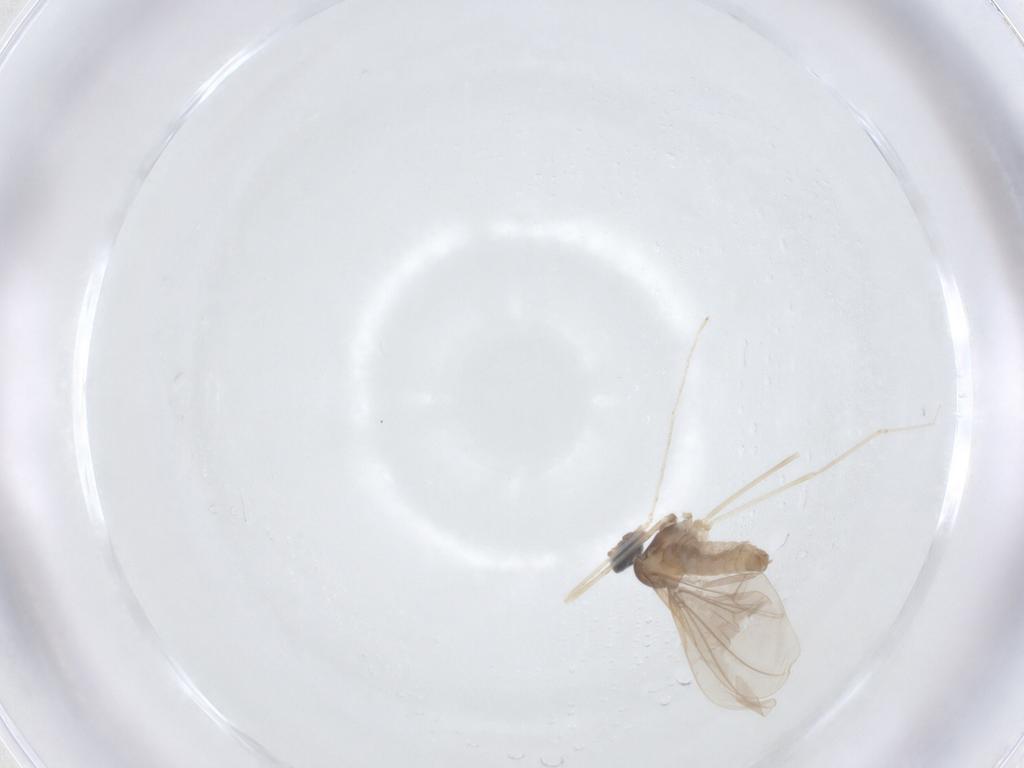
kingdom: Animalia
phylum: Arthropoda
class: Insecta
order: Diptera
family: Cecidomyiidae
